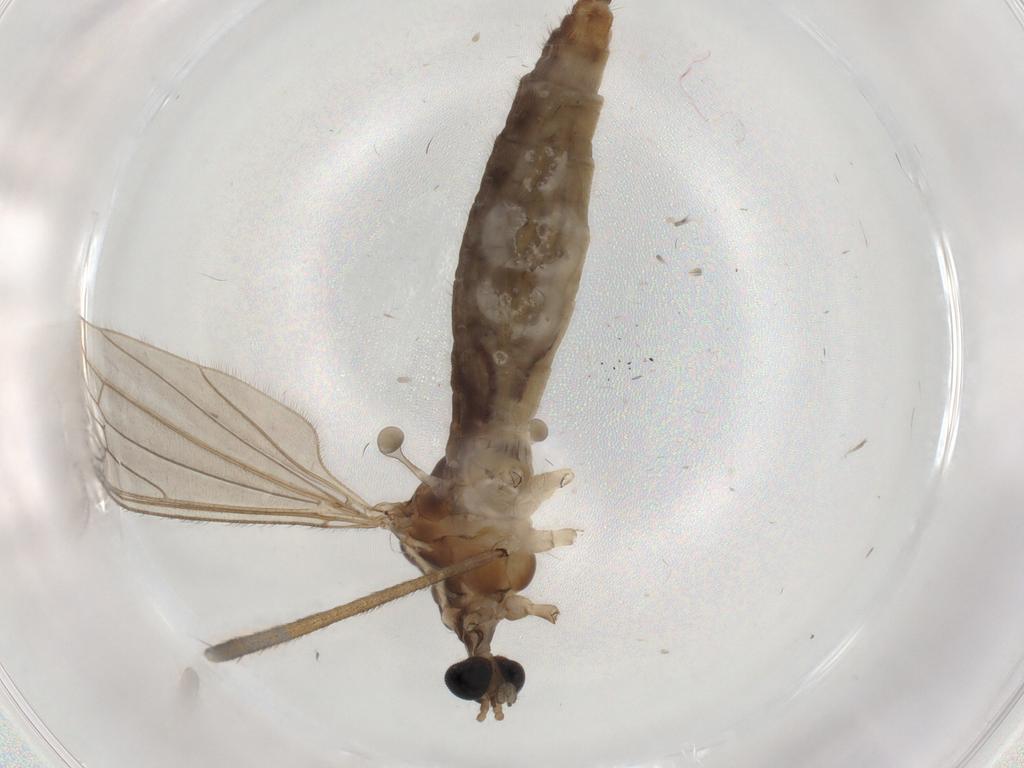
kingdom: Animalia
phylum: Arthropoda
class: Insecta
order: Diptera
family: Limoniidae
